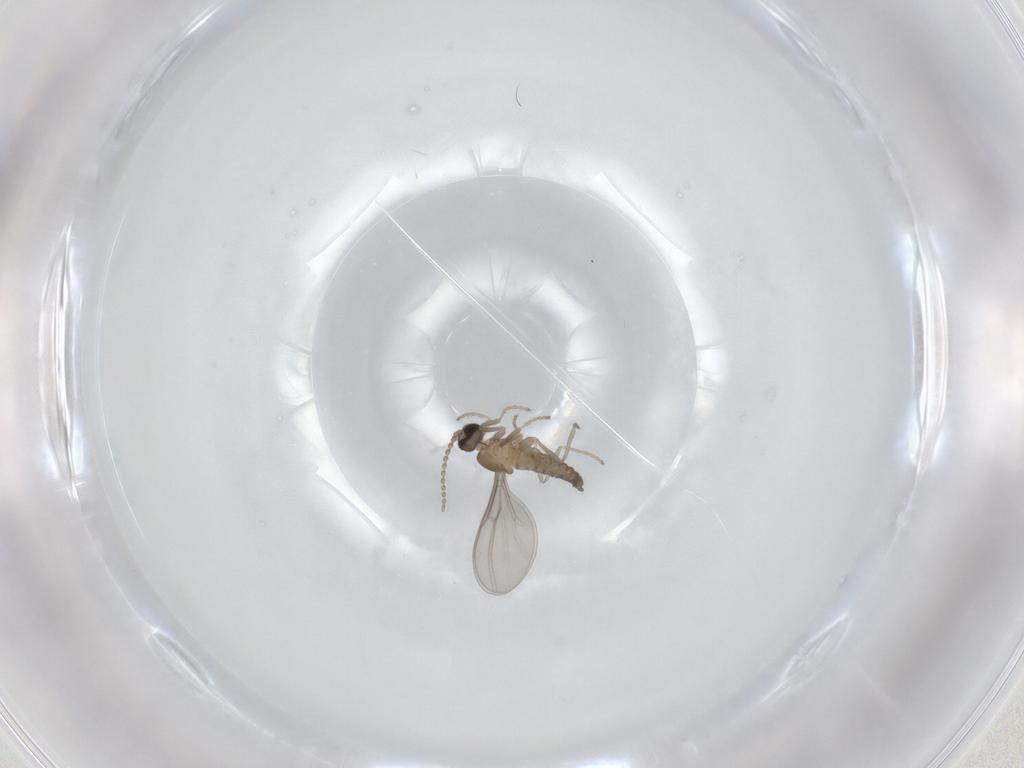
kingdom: Animalia
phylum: Arthropoda
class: Insecta
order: Diptera
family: Cecidomyiidae
